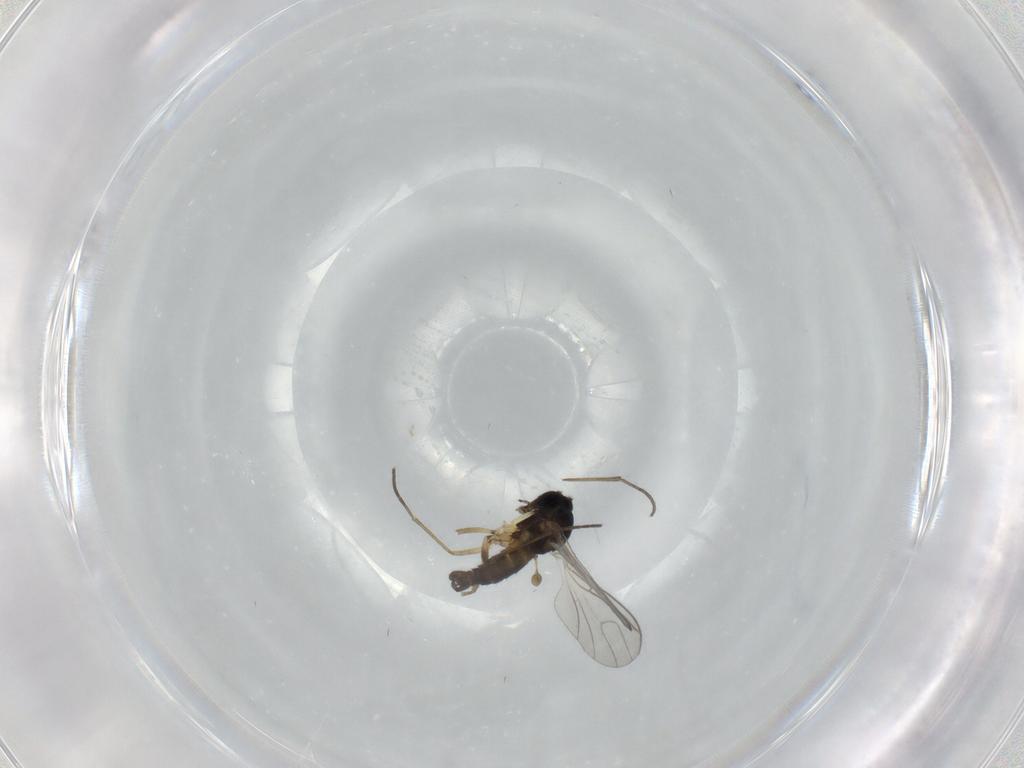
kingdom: Animalia
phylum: Arthropoda
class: Insecta
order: Diptera
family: Sciaridae
